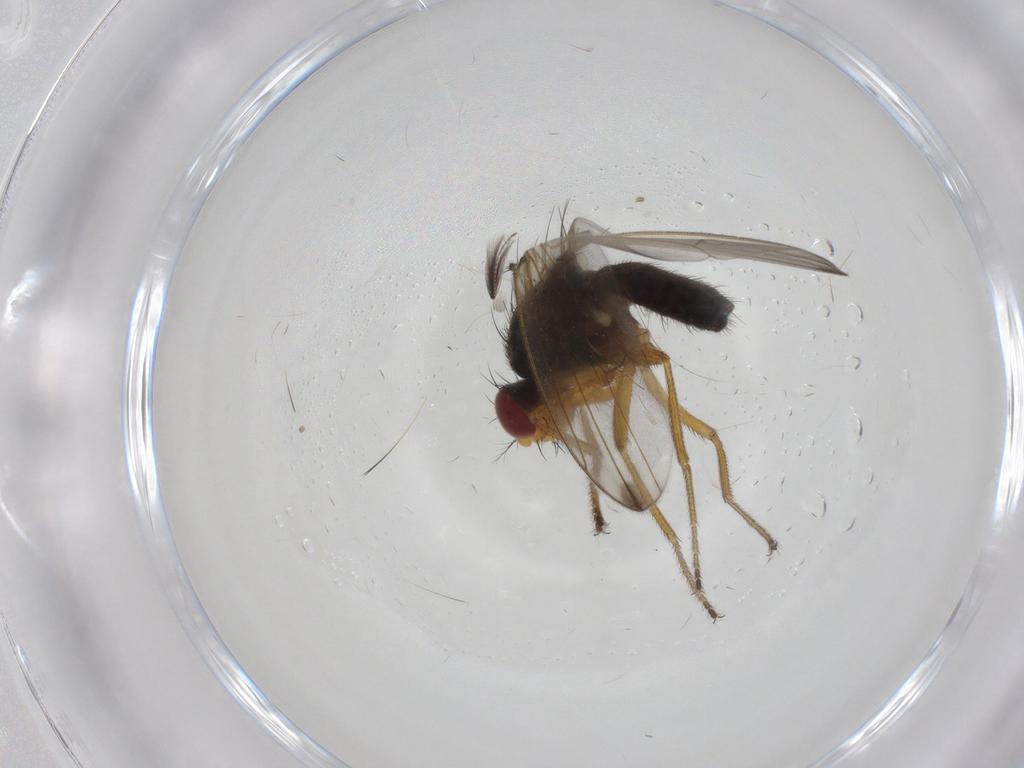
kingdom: Animalia
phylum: Arthropoda
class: Insecta
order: Diptera
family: Drosophilidae
